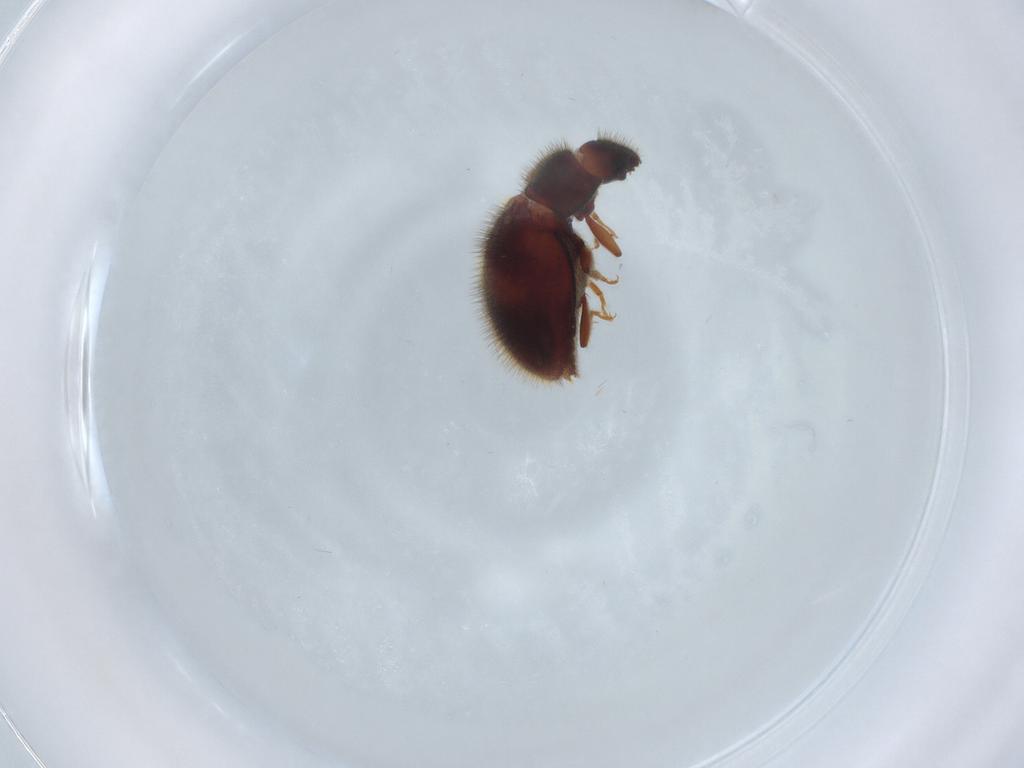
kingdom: Animalia
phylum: Arthropoda
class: Insecta
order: Coleoptera
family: Biphyllidae
